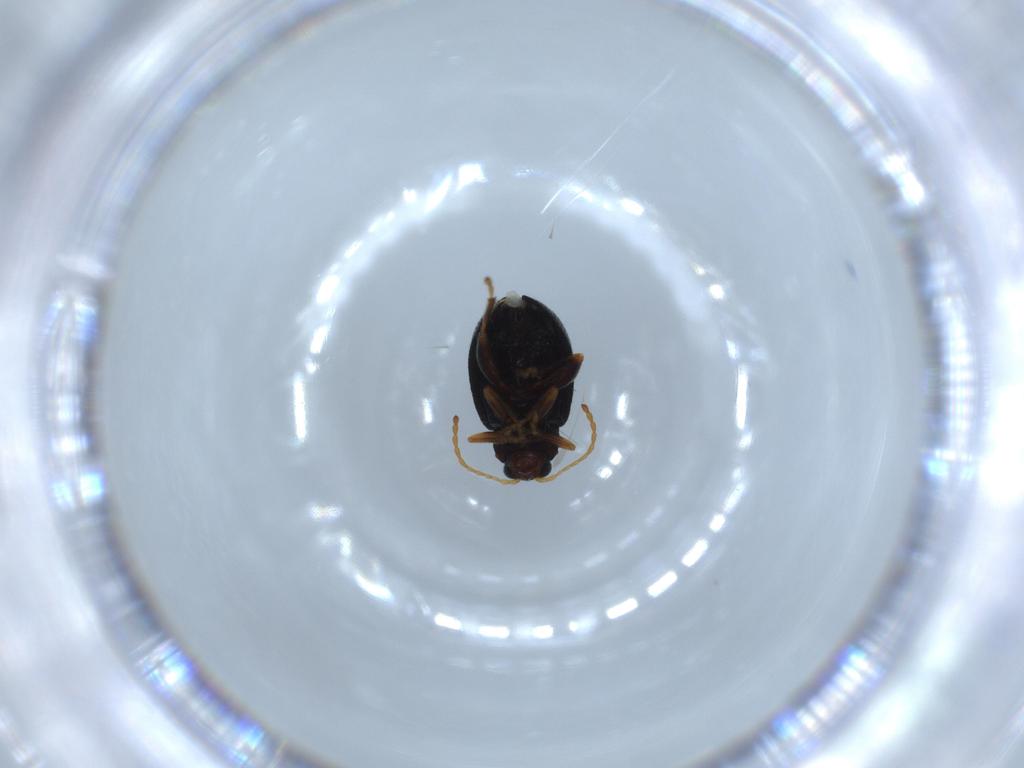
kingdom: Animalia
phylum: Arthropoda
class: Insecta
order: Coleoptera
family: Chrysomelidae
